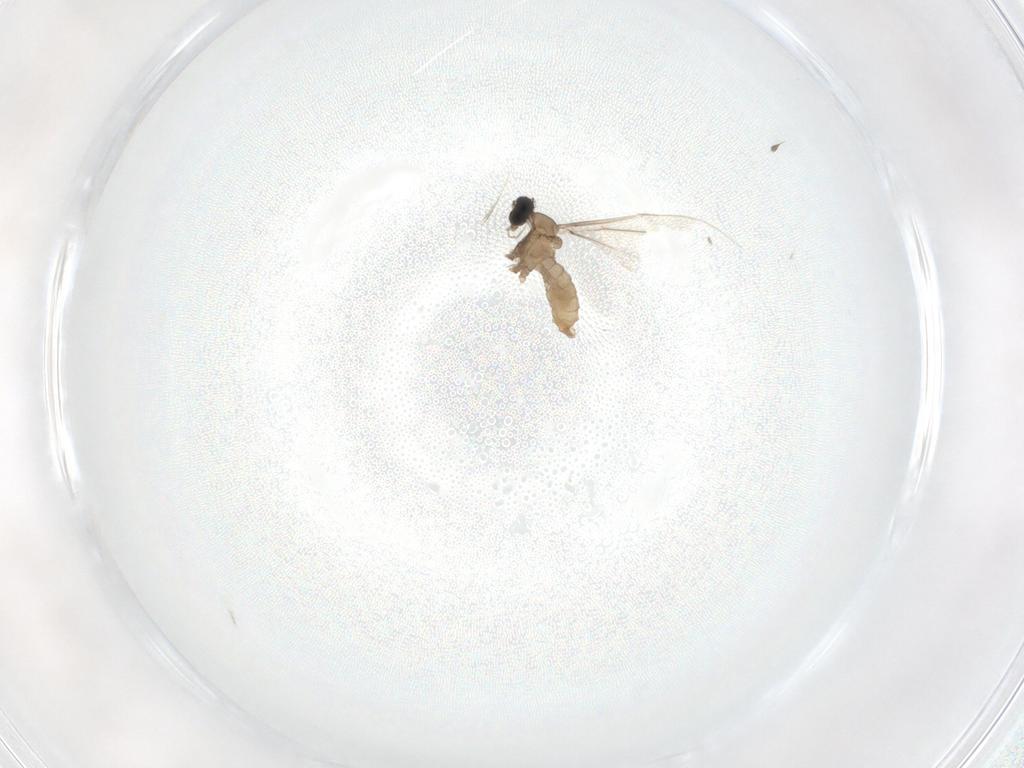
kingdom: Animalia
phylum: Arthropoda
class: Insecta
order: Diptera
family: Cecidomyiidae
